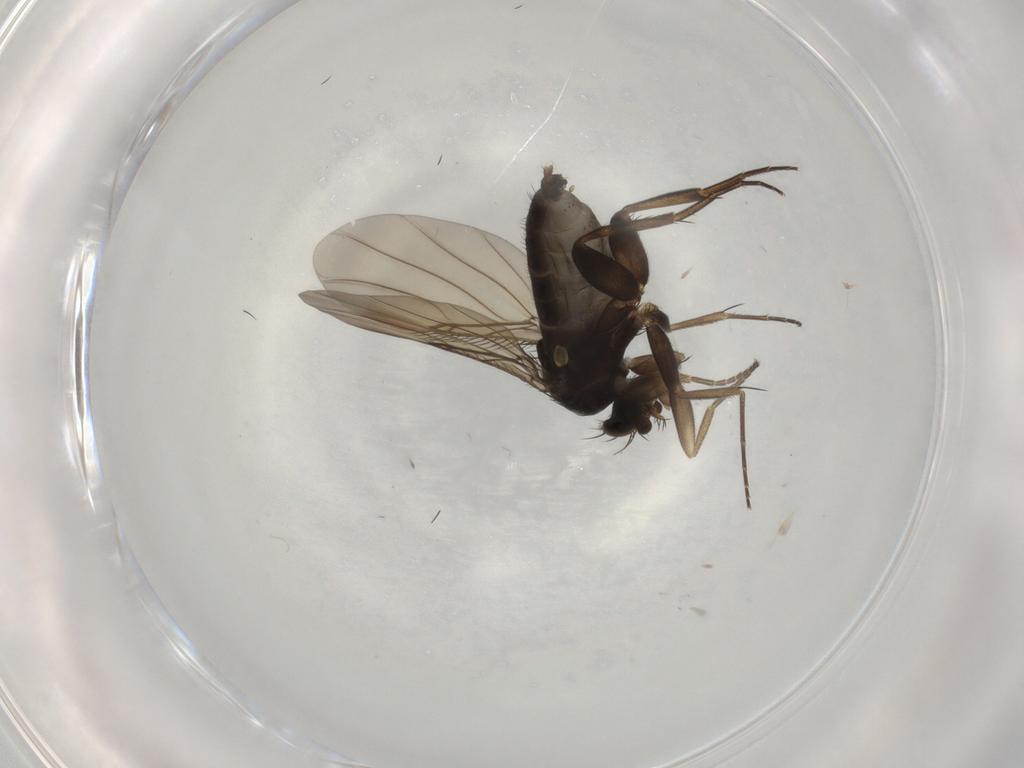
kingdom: Animalia
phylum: Arthropoda
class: Insecta
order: Diptera
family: Phoridae
